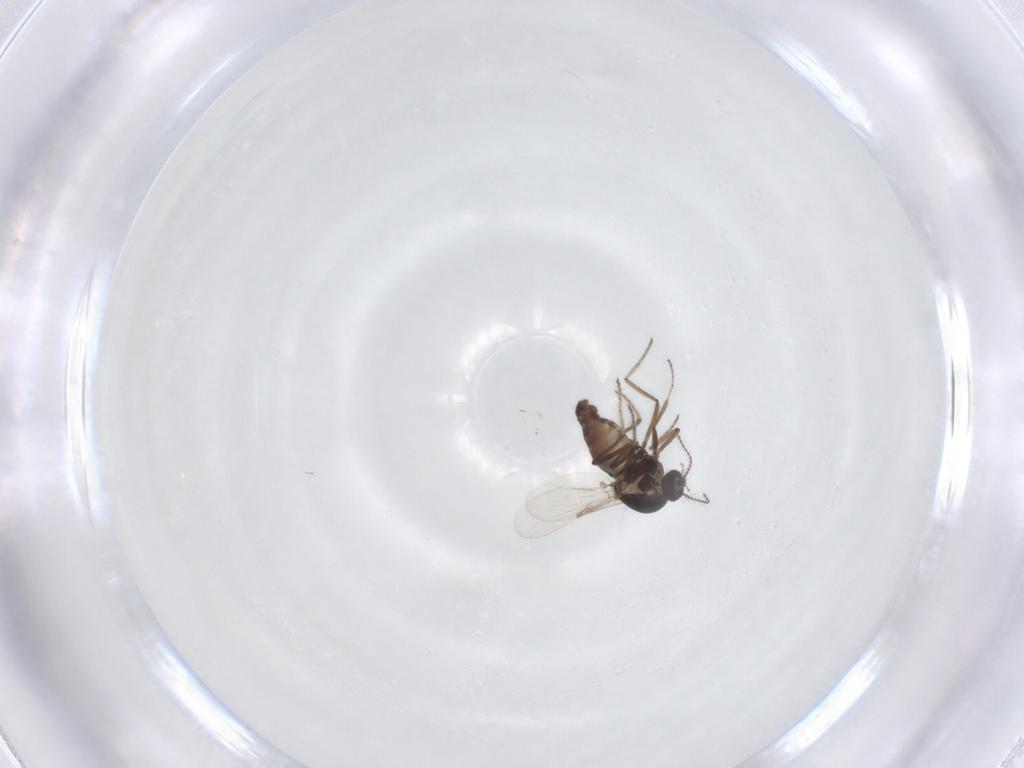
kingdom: Animalia
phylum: Arthropoda
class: Insecta
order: Diptera
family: Ceratopogonidae
